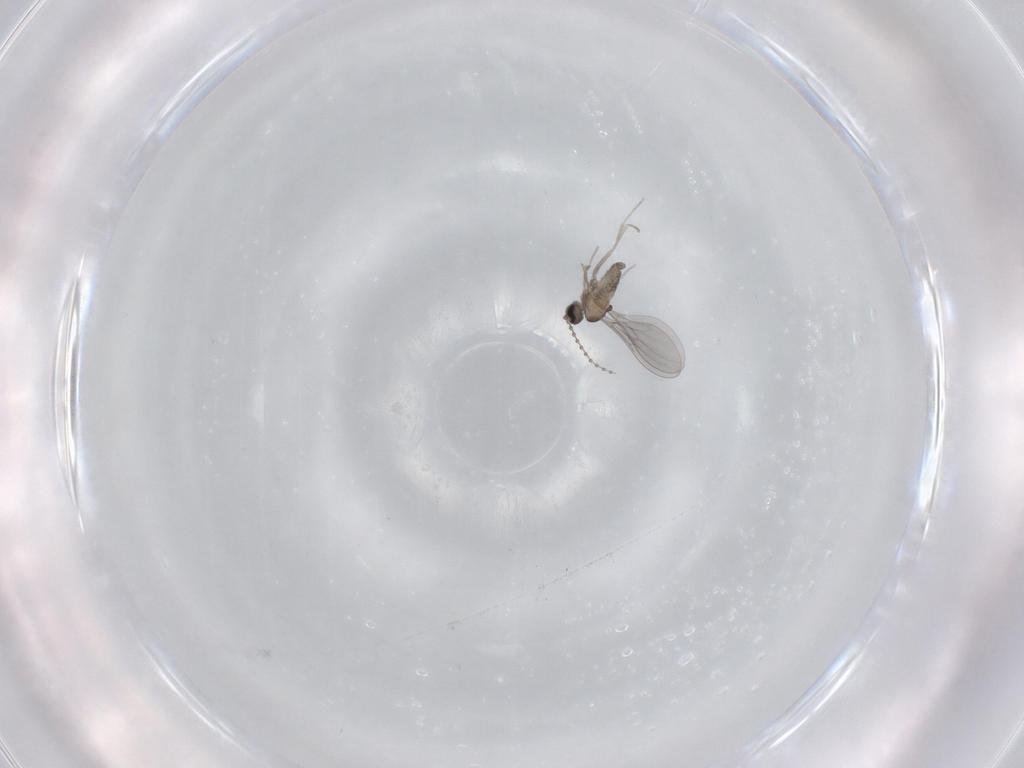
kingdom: Animalia
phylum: Arthropoda
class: Insecta
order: Diptera
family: Cecidomyiidae
